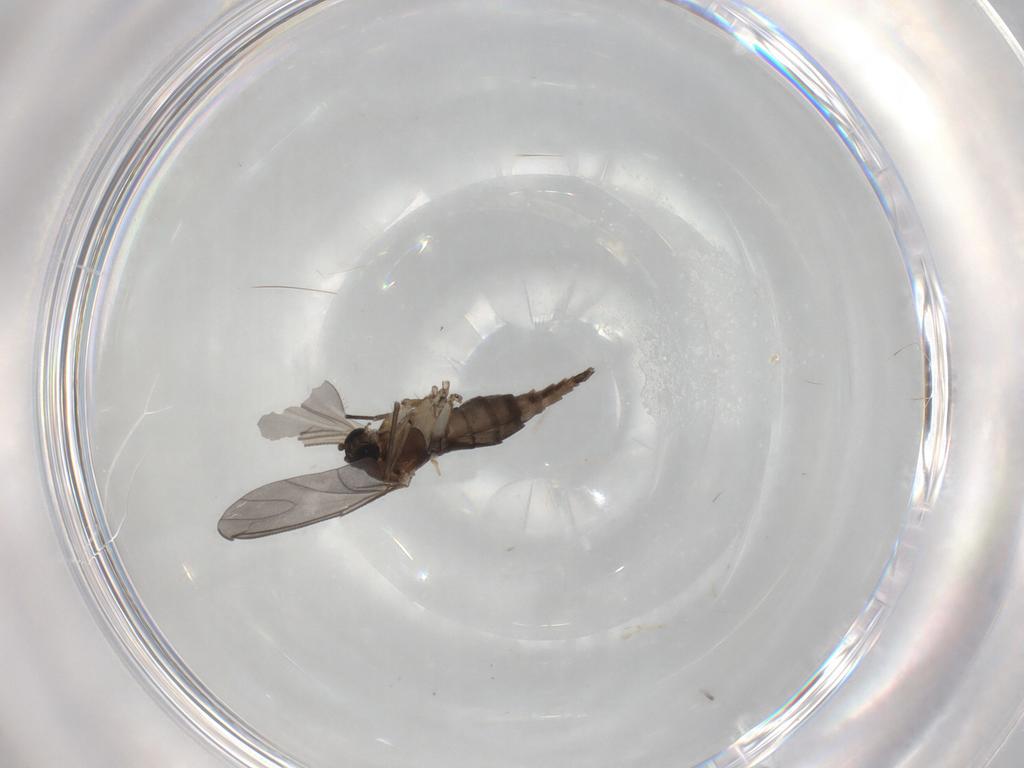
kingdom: Animalia
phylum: Arthropoda
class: Insecta
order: Diptera
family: Sciaridae
